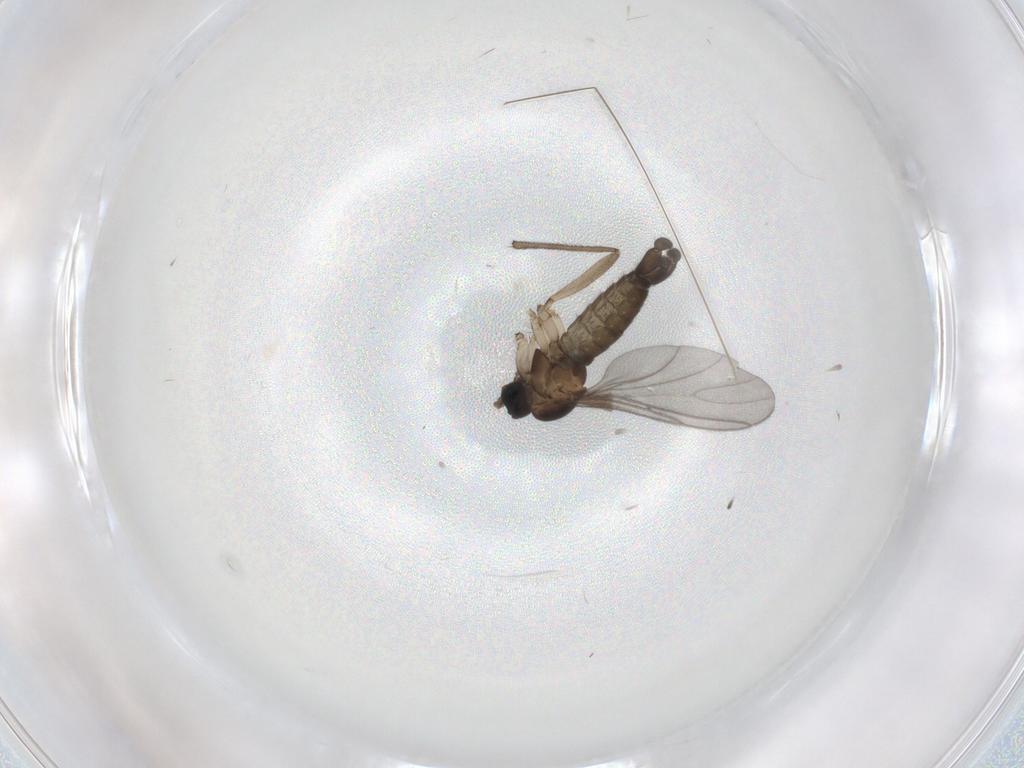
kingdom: Animalia
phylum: Arthropoda
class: Insecta
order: Diptera
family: Sciaridae
